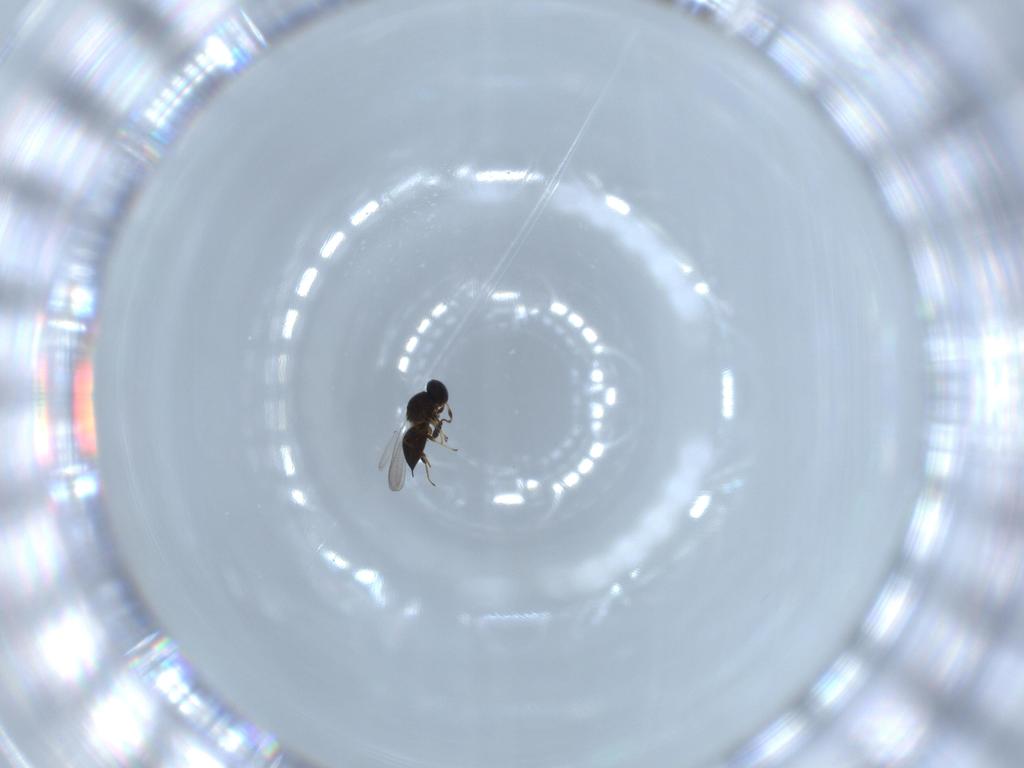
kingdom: Animalia
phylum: Arthropoda
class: Insecta
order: Hymenoptera
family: Platygastridae
